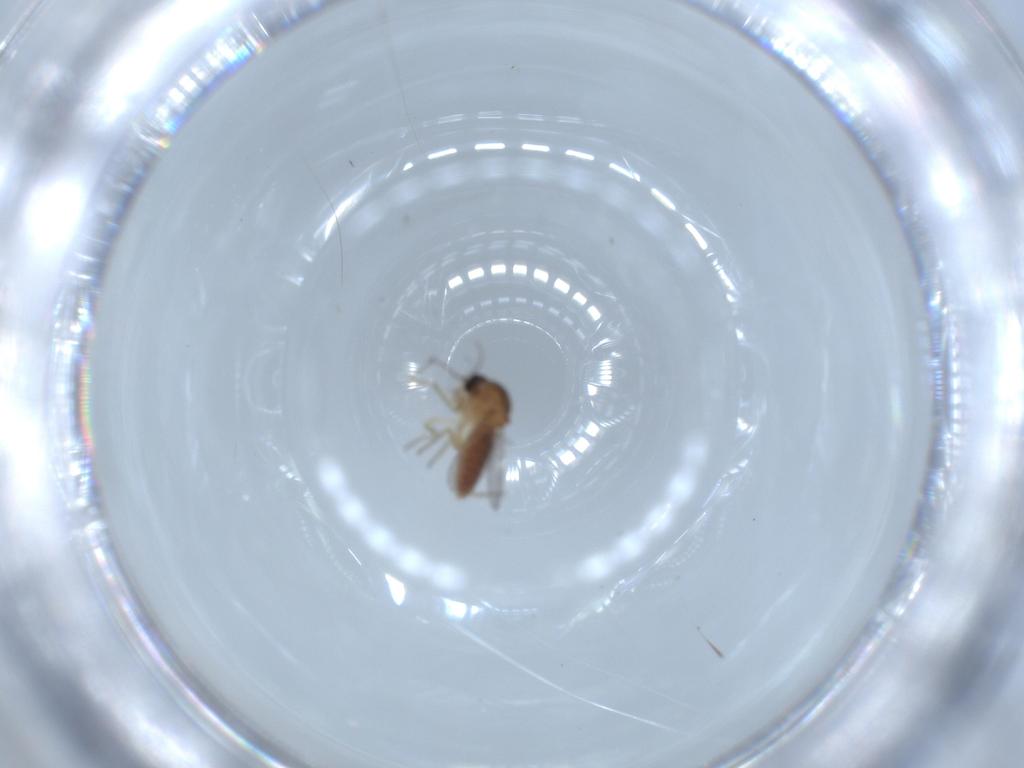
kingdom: Animalia
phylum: Arthropoda
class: Insecta
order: Diptera
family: Ceratopogonidae
